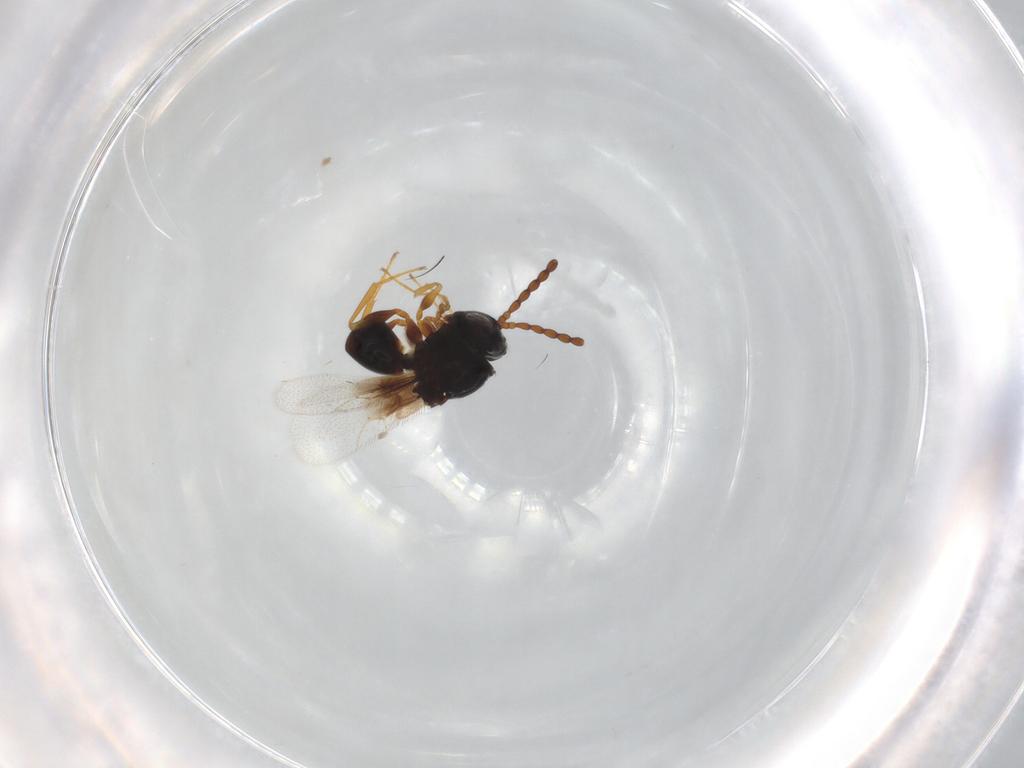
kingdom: Animalia
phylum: Arthropoda
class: Insecta
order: Hymenoptera
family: Figitidae
